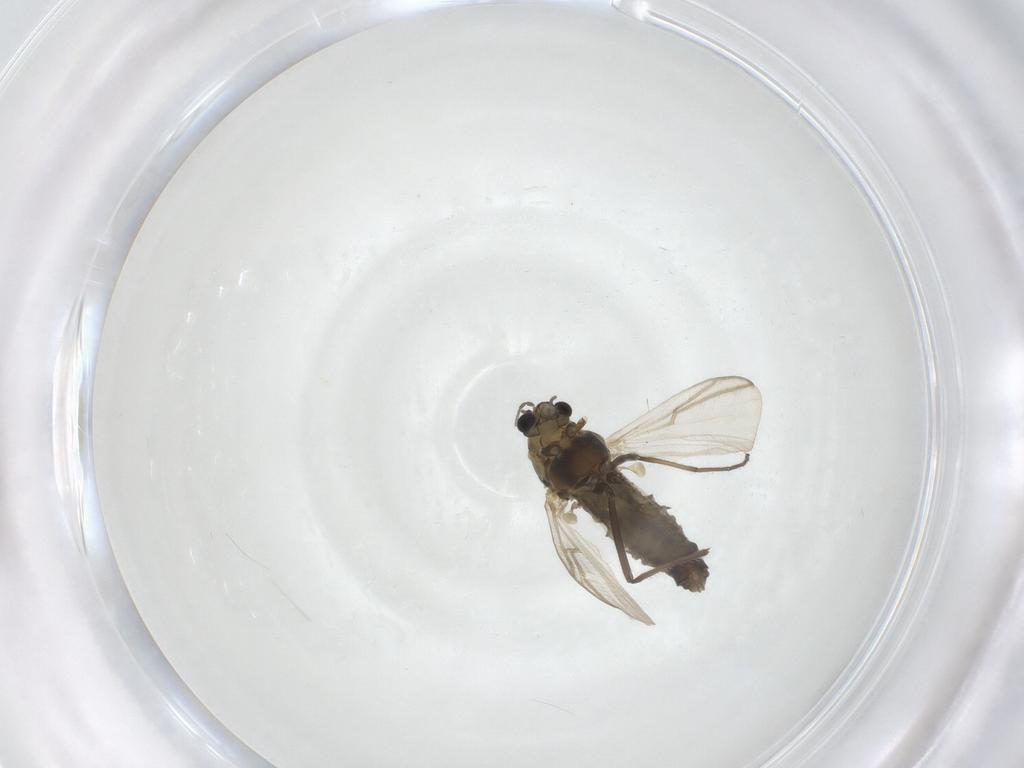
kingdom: Animalia
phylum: Arthropoda
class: Insecta
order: Diptera
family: Chironomidae
